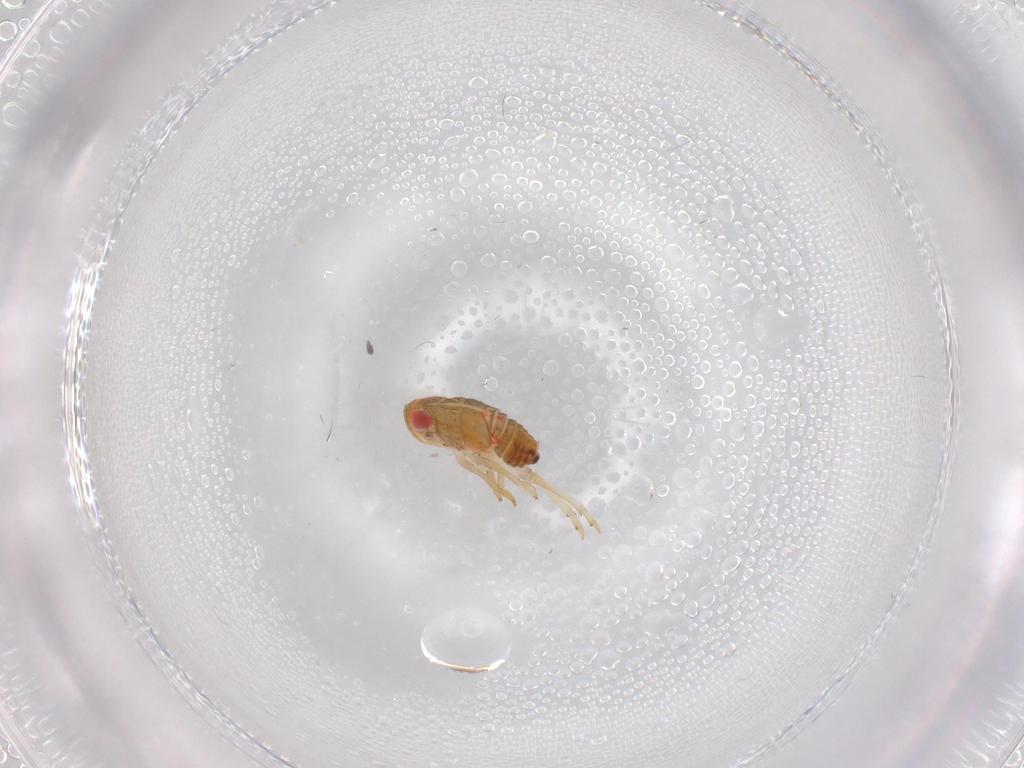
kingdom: Animalia
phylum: Arthropoda
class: Insecta
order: Hemiptera
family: Issidae
